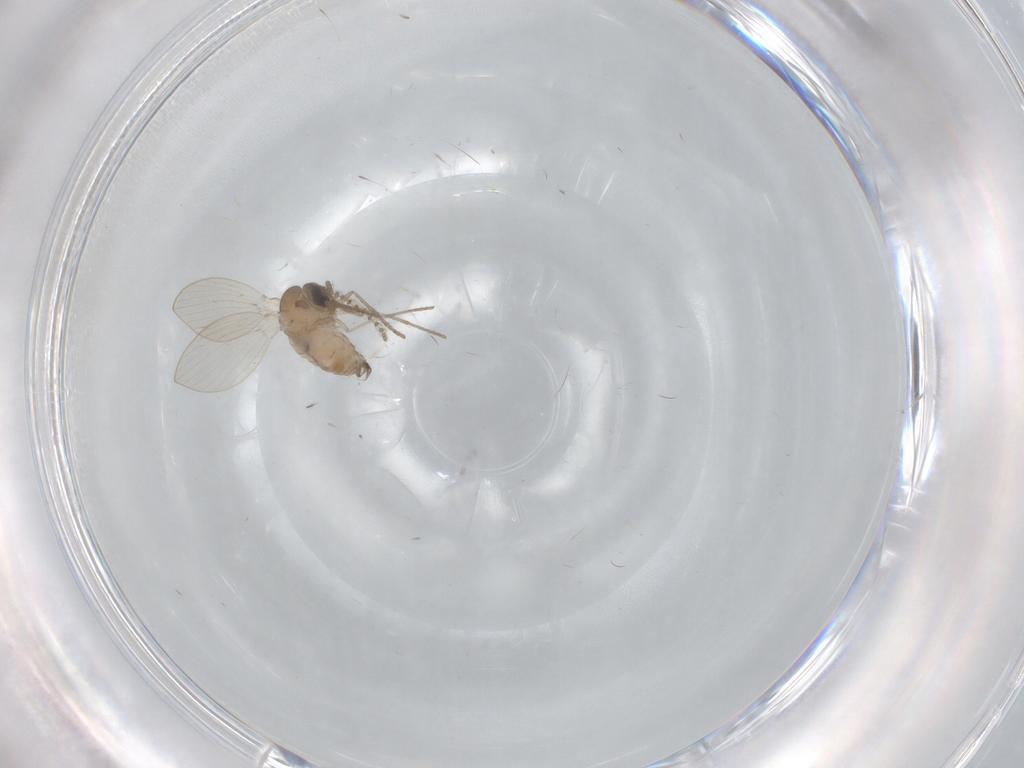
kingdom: Animalia
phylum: Arthropoda
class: Insecta
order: Diptera
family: Psychodidae
